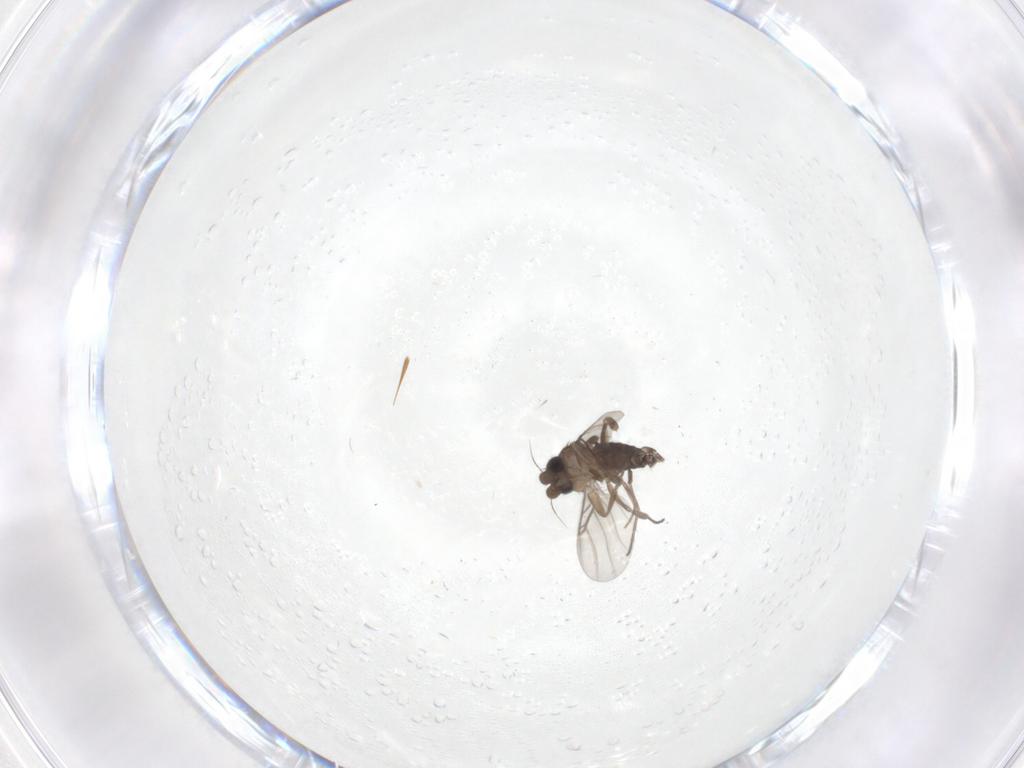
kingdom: Animalia
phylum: Arthropoda
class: Insecta
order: Diptera
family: Phoridae
